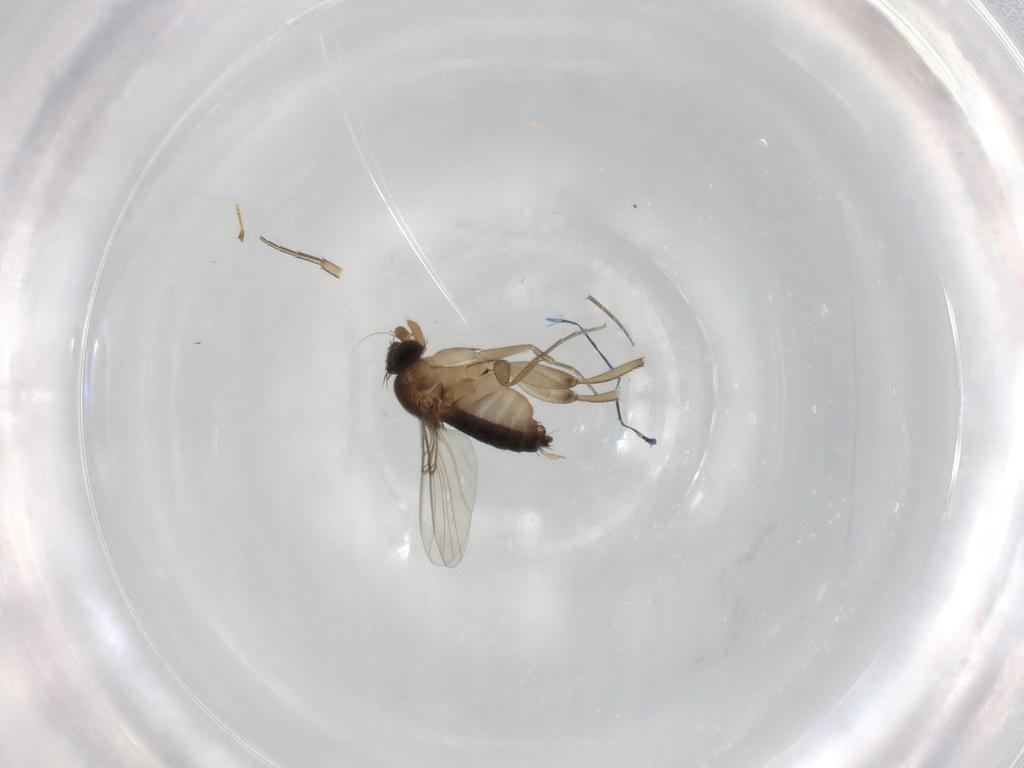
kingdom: Animalia
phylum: Arthropoda
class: Insecta
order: Diptera
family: Phoridae
